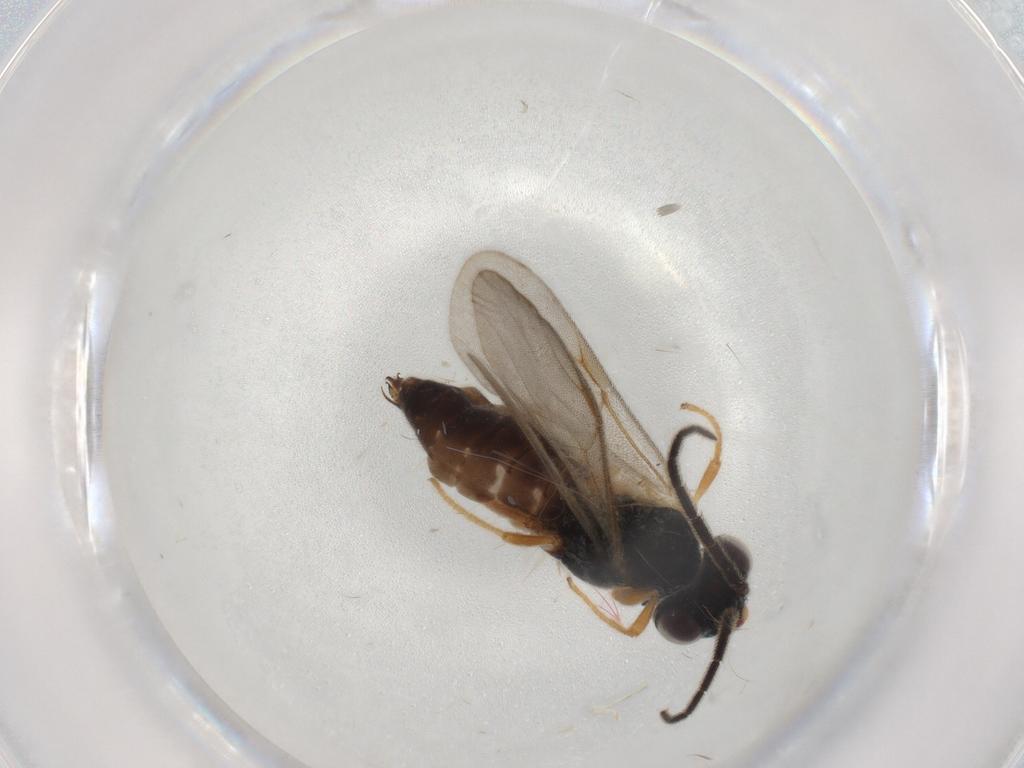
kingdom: Animalia
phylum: Arthropoda
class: Insecta
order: Hymenoptera
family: Dryinidae
